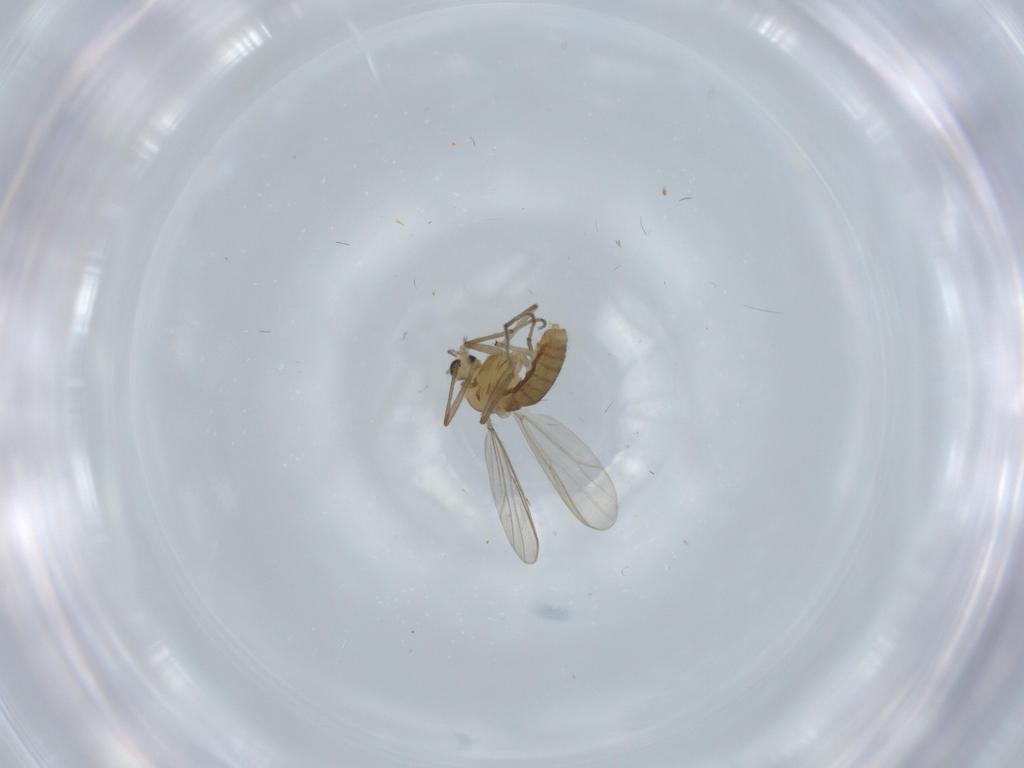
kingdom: Animalia
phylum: Arthropoda
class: Insecta
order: Diptera
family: Chironomidae
